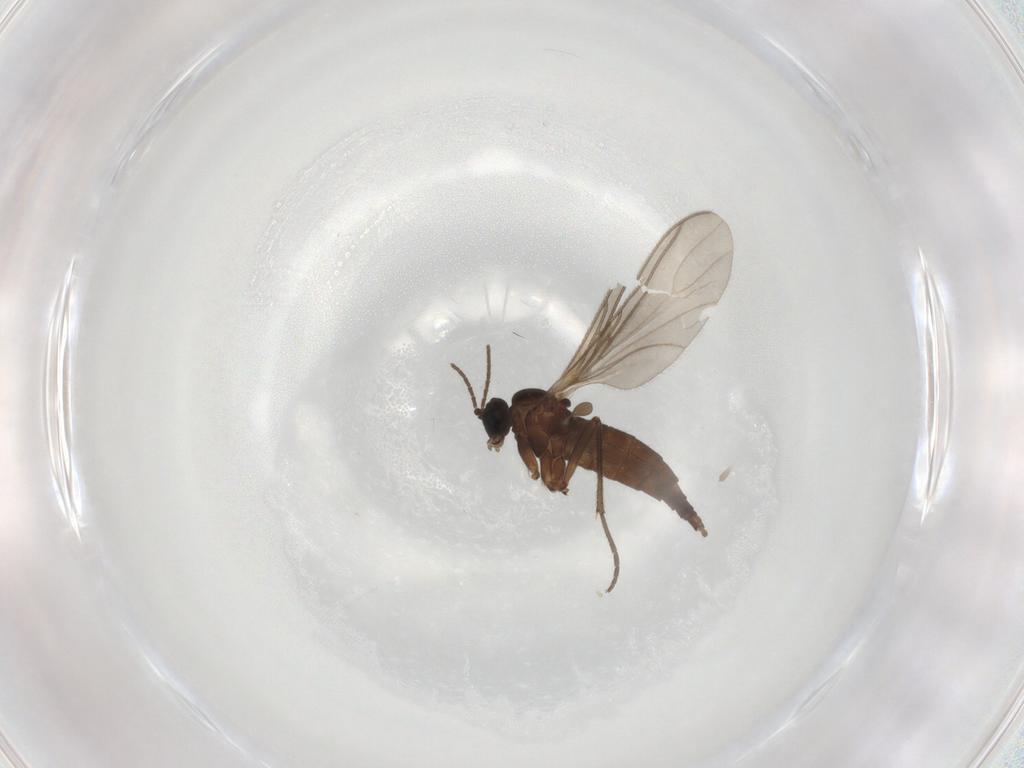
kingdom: Animalia
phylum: Arthropoda
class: Insecta
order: Diptera
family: Sciaridae
